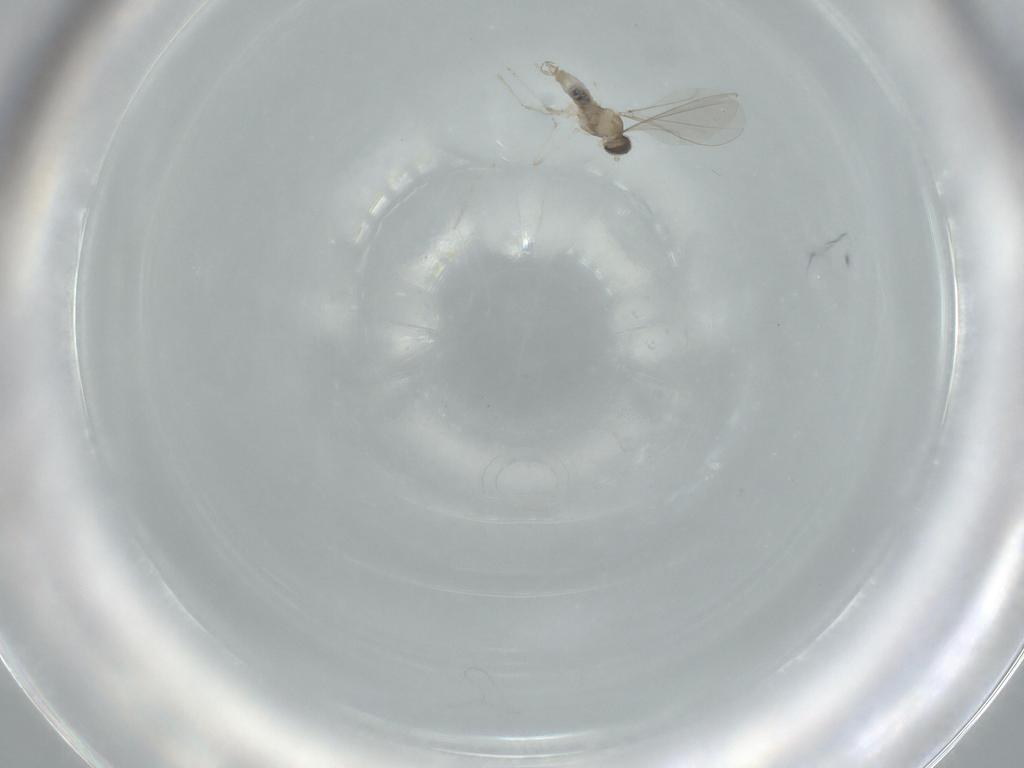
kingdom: Animalia
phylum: Arthropoda
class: Insecta
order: Diptera
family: Cecidomyiidae
